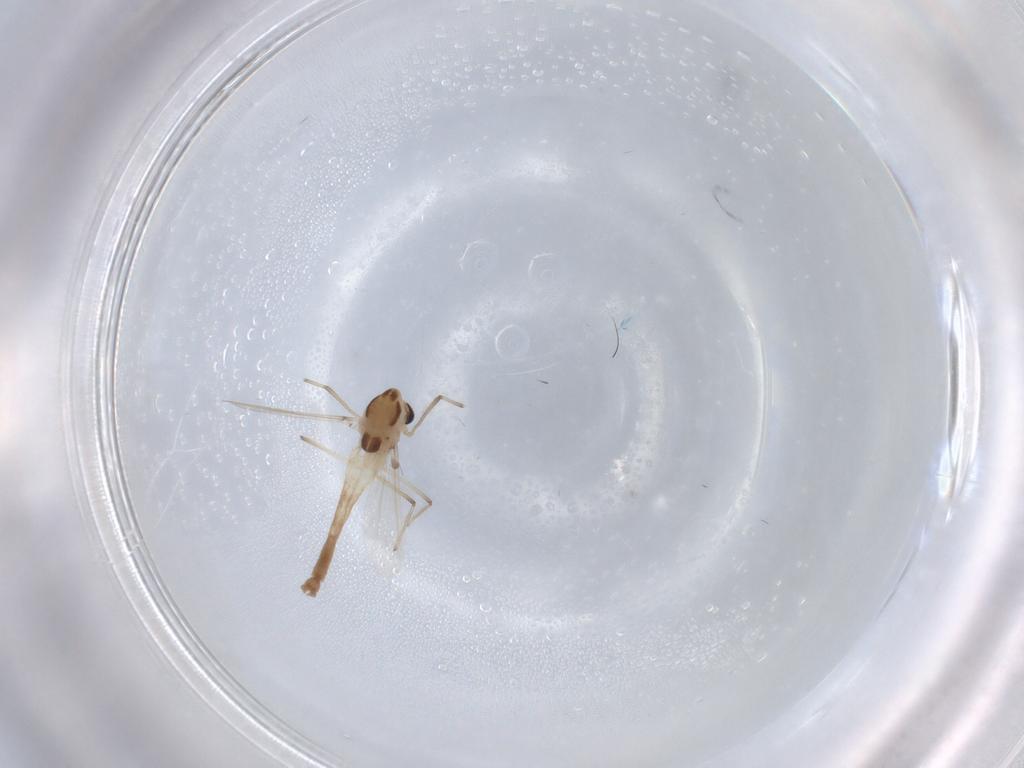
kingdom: Animalia
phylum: Arthropoda
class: Insecta
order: Diptera
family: Chironomidae
